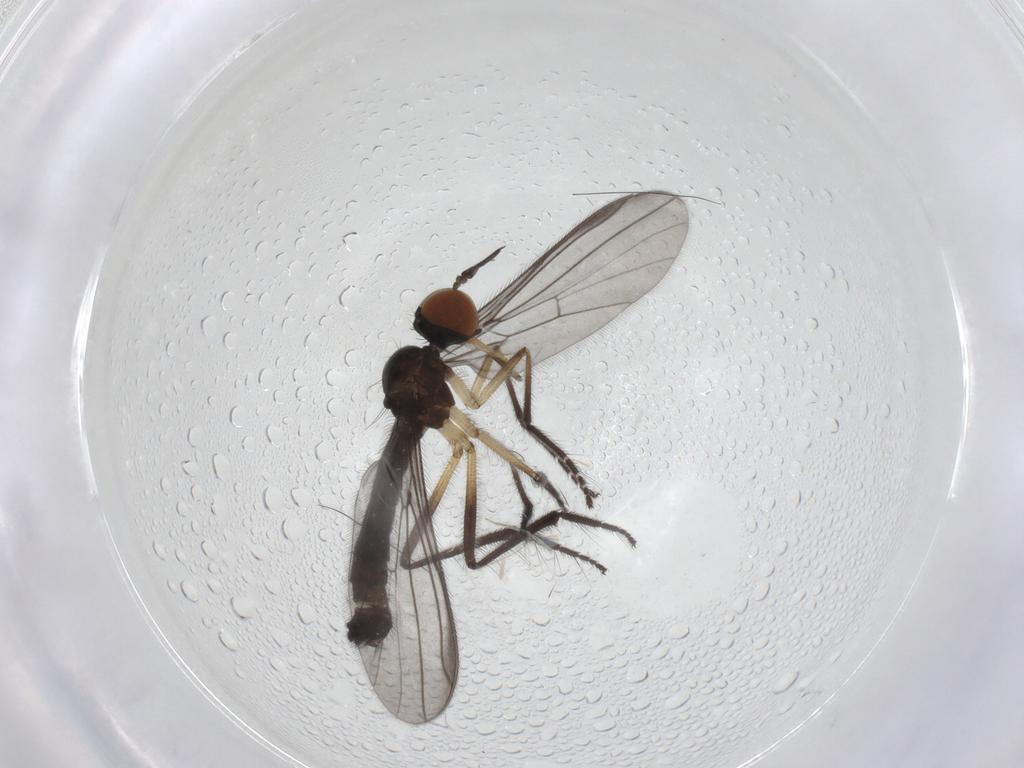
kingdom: Animalia
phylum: Arthropoda
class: Insecta
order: Diptera
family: Empididae
